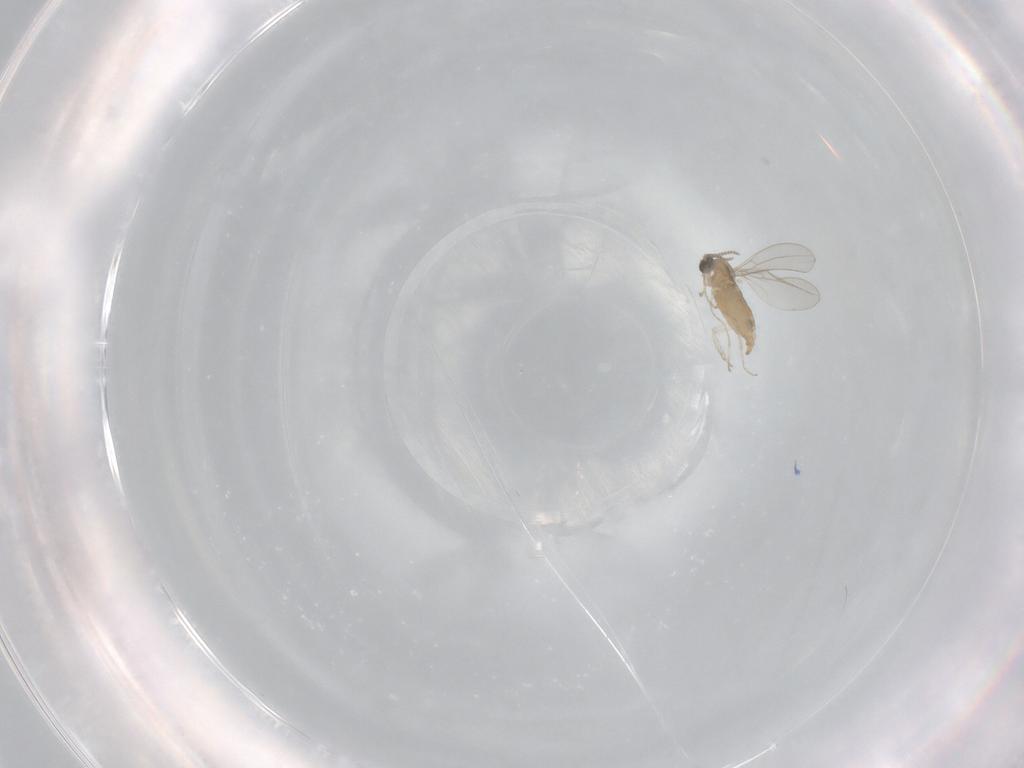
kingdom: Animalia
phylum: Arthropoda
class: Insecta
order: Diptera
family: Cecidomyiidae
